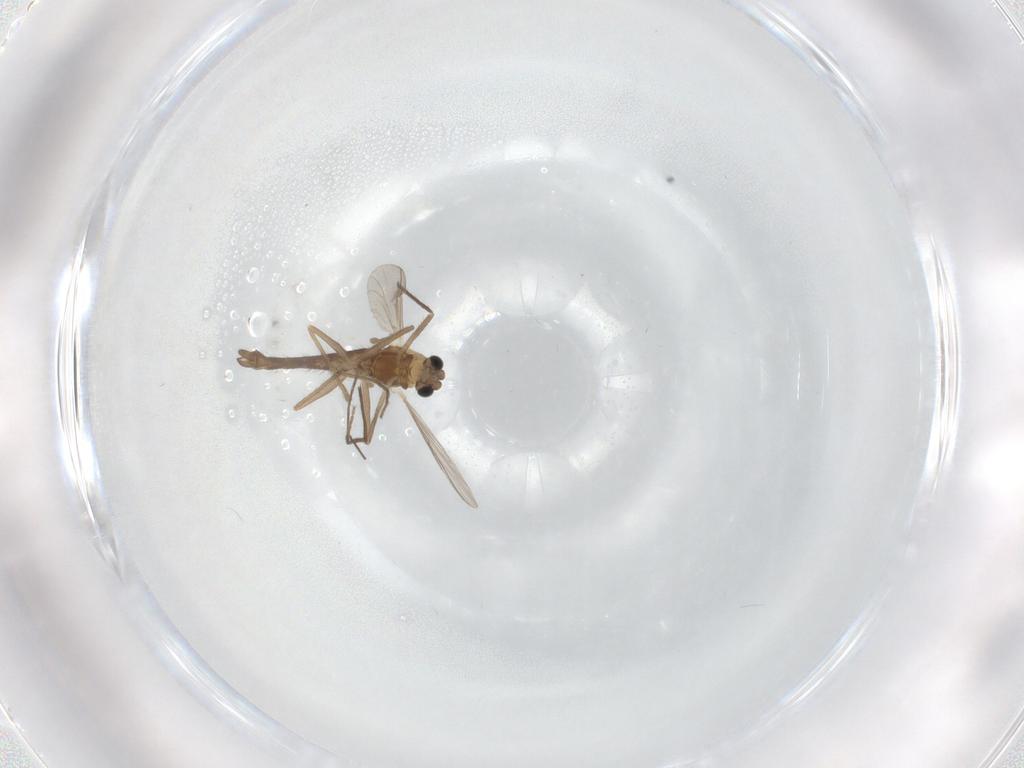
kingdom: Animalia
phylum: Arthropoda
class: Insecta
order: Diptera
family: Chironomidae
